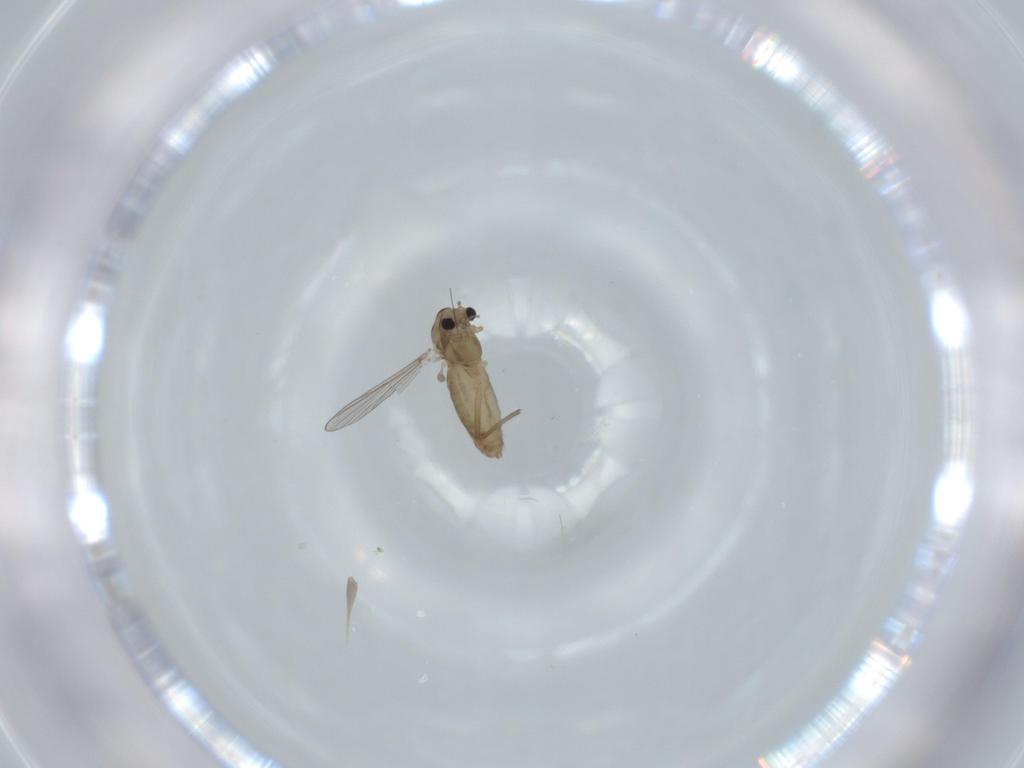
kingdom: Animalia
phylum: Arthropoda
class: Insecta
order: Diptera
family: Chironomidae
